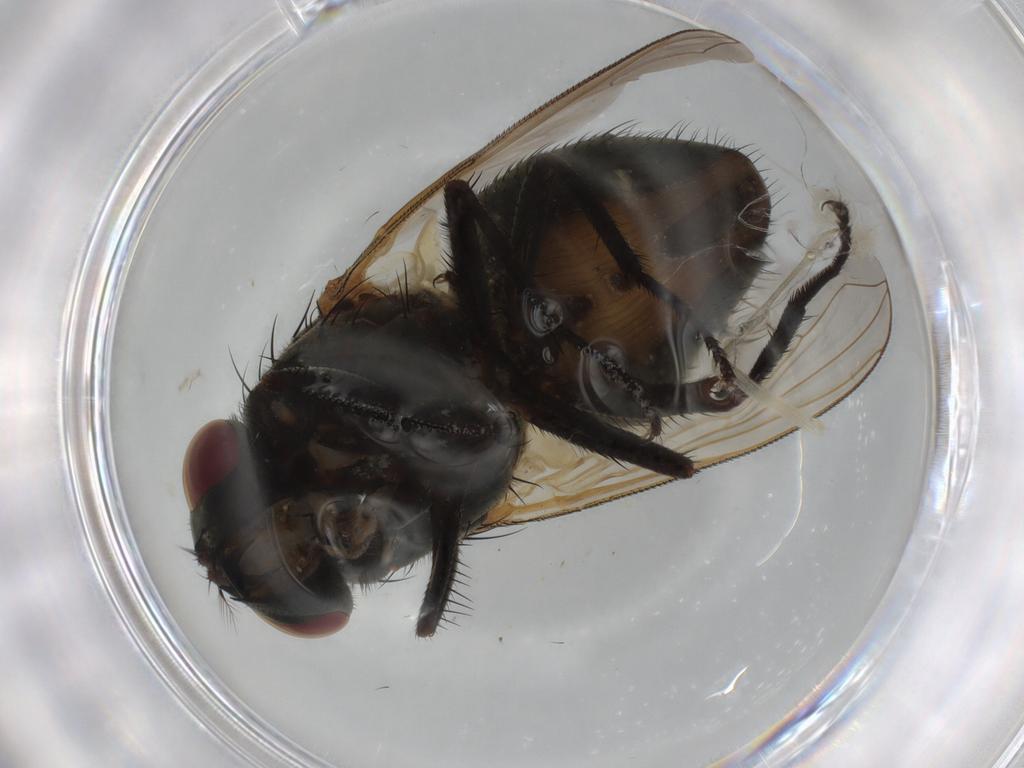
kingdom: Animalia
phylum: Arthropoda
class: Insecta
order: Diptera
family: Muscidae
